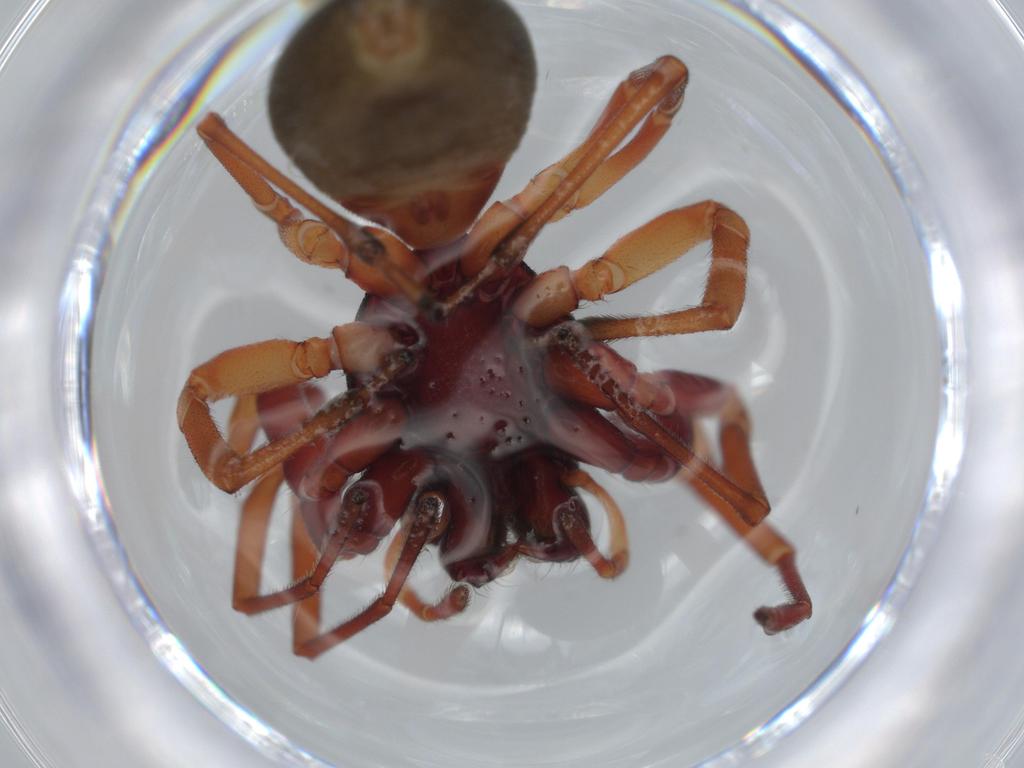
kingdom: Animalia
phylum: Arthropoda
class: Arachnida
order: Araneae
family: Trachelidae
